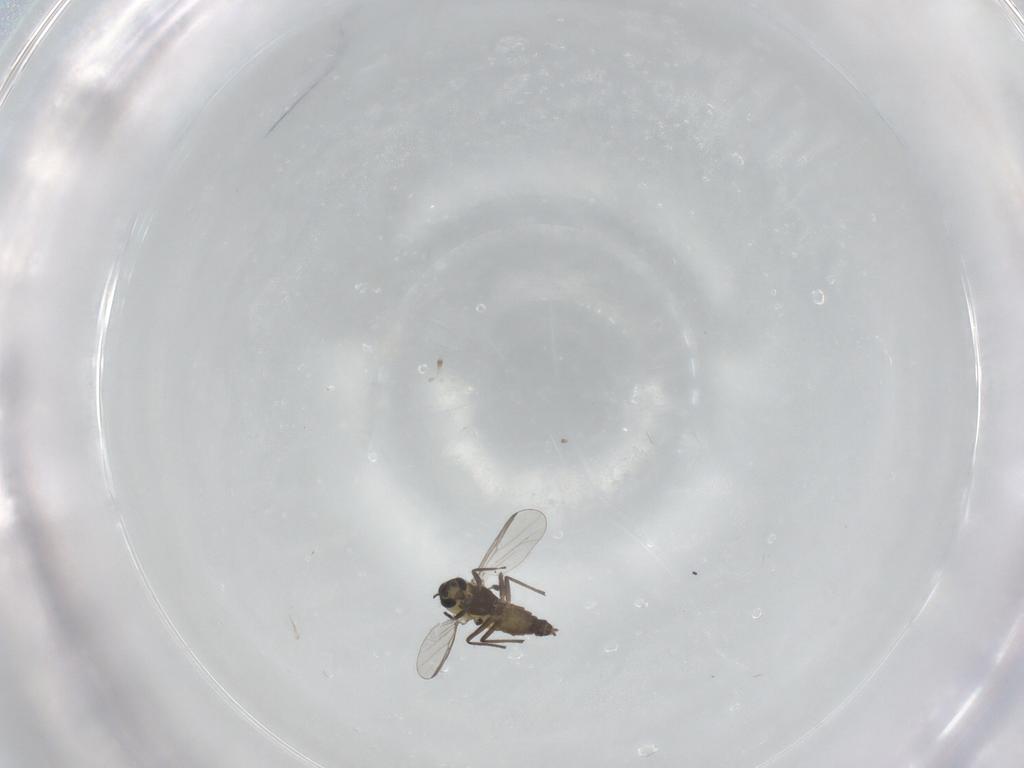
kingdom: Animalia
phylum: Arthropoda
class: Insecta
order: Diptera
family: Chironomidae
